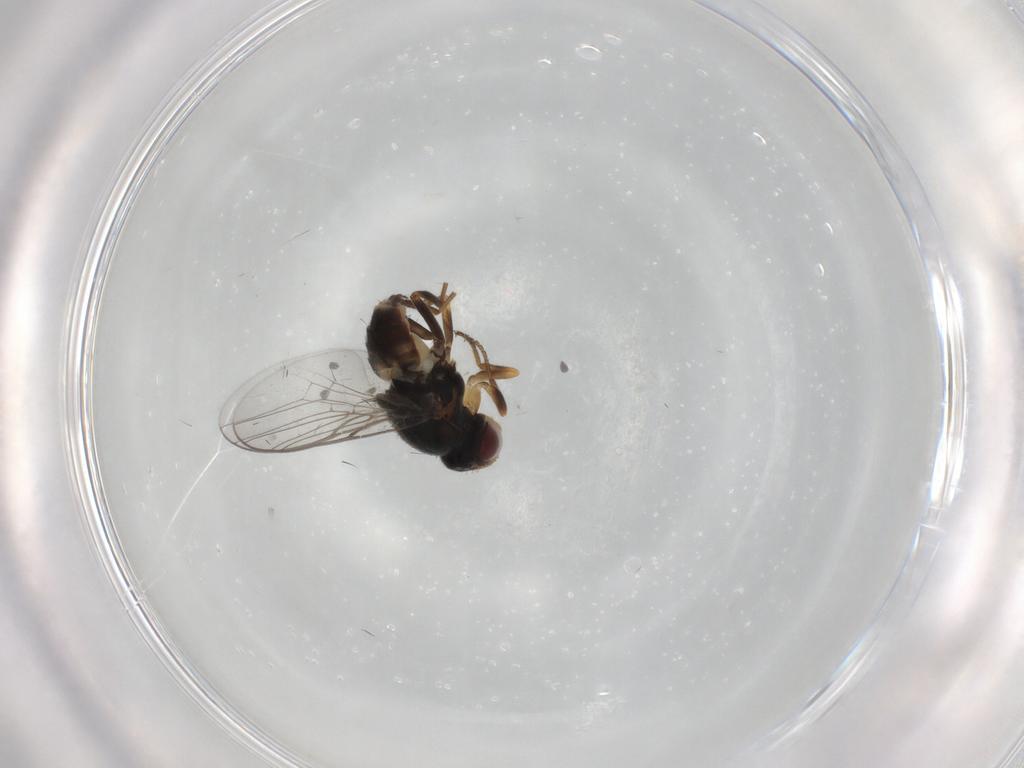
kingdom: Animalia
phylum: Arthropoda
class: Insecta
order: Diptera
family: Chloropidae
